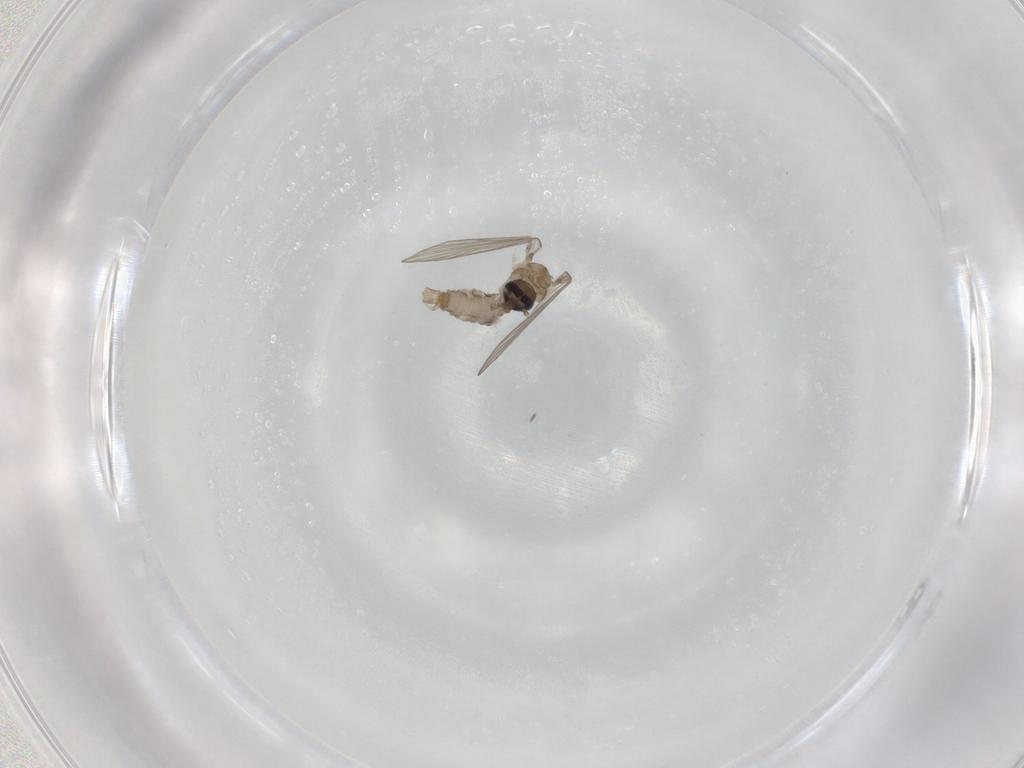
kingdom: Animalia
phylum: Arthropoda
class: Insecta
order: Diptera
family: Psychodidae
